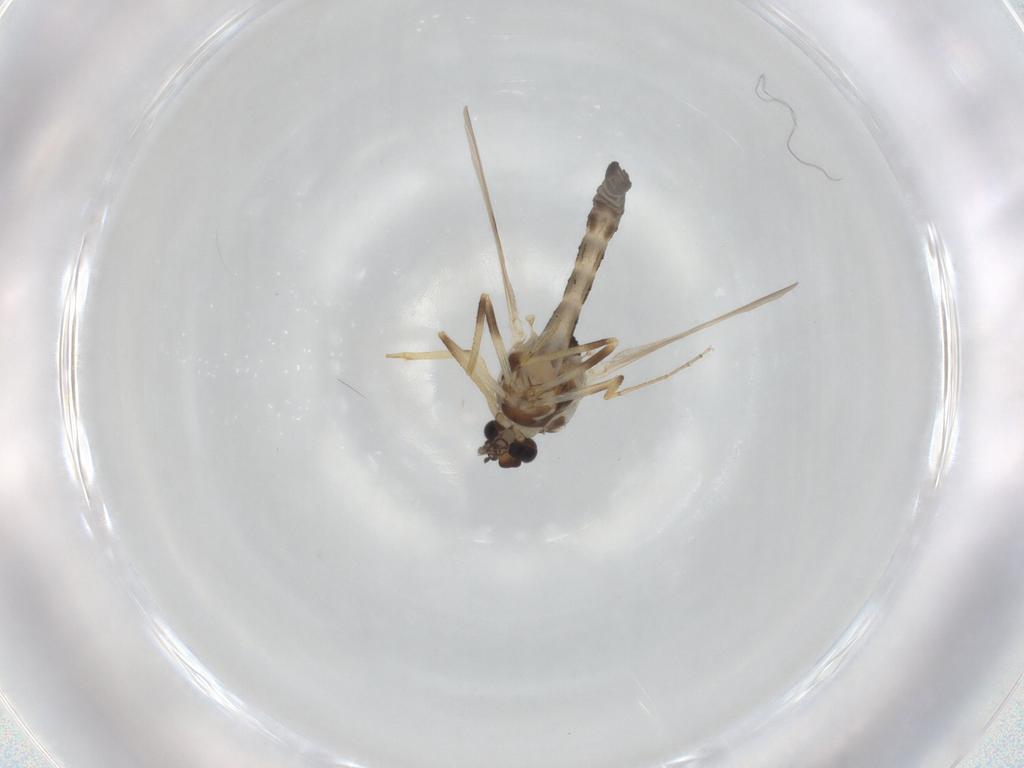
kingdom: Animalia
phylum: Arthropoda
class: Insecta
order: Diptera
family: Ceratopogonidae
